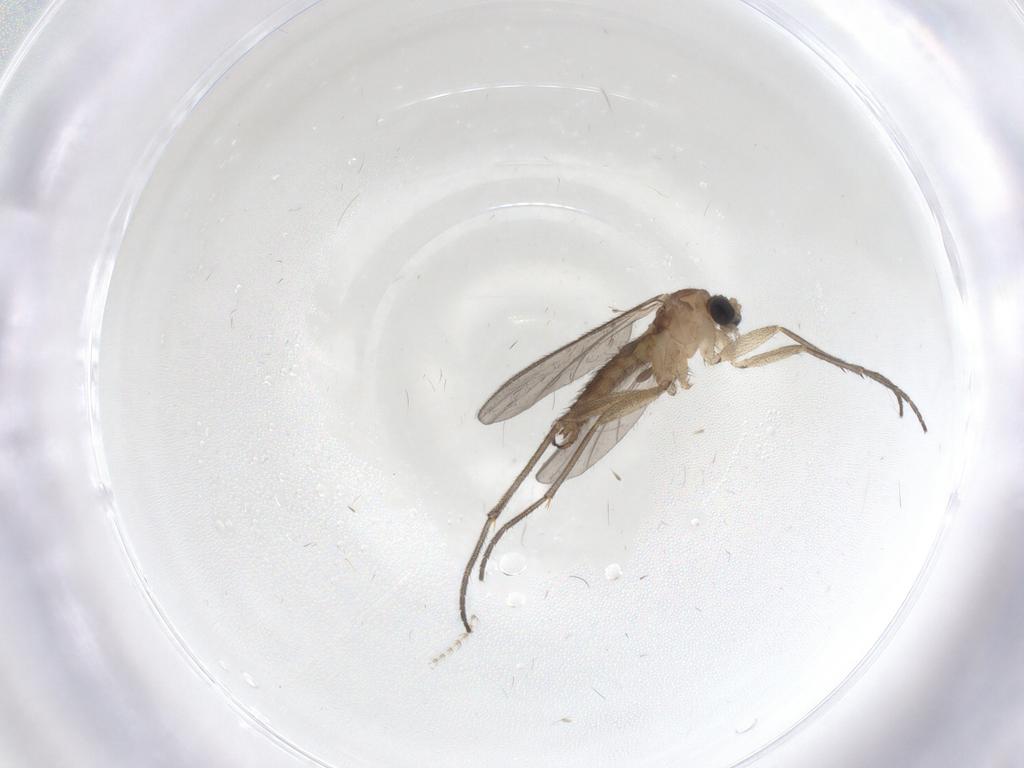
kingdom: Animalia
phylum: Arthropoda
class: Insecta
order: Diptera
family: Sciaridae
